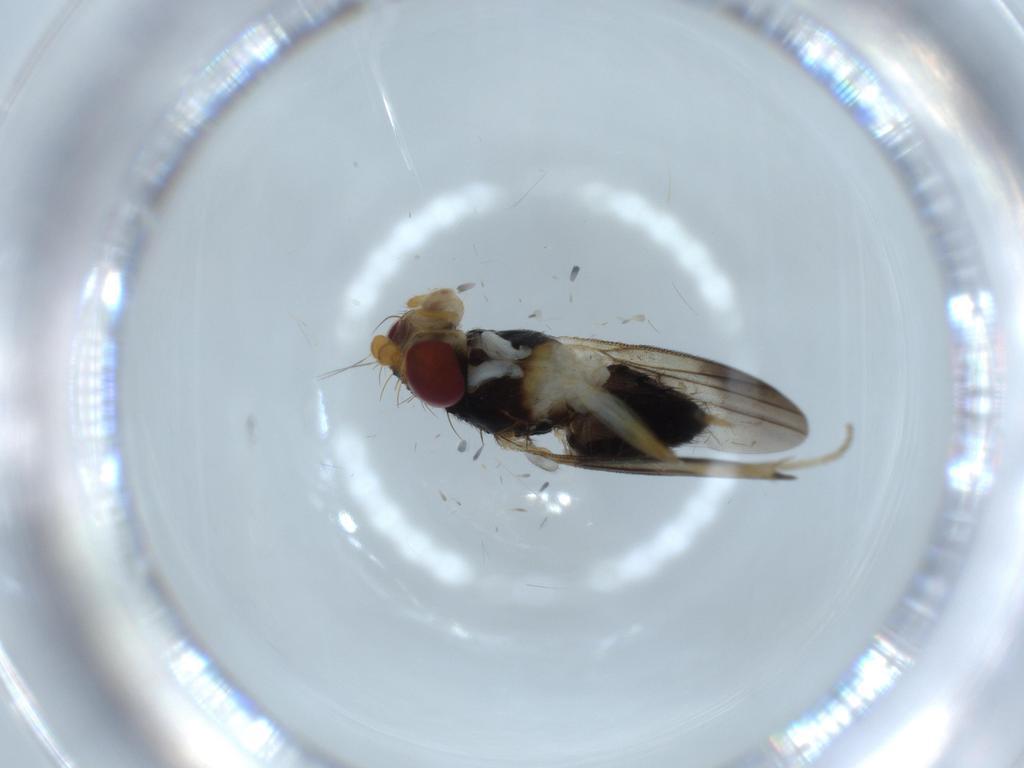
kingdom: Animalia
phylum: Arthropoda
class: Insecta
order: Diptera
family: Clusiidae
